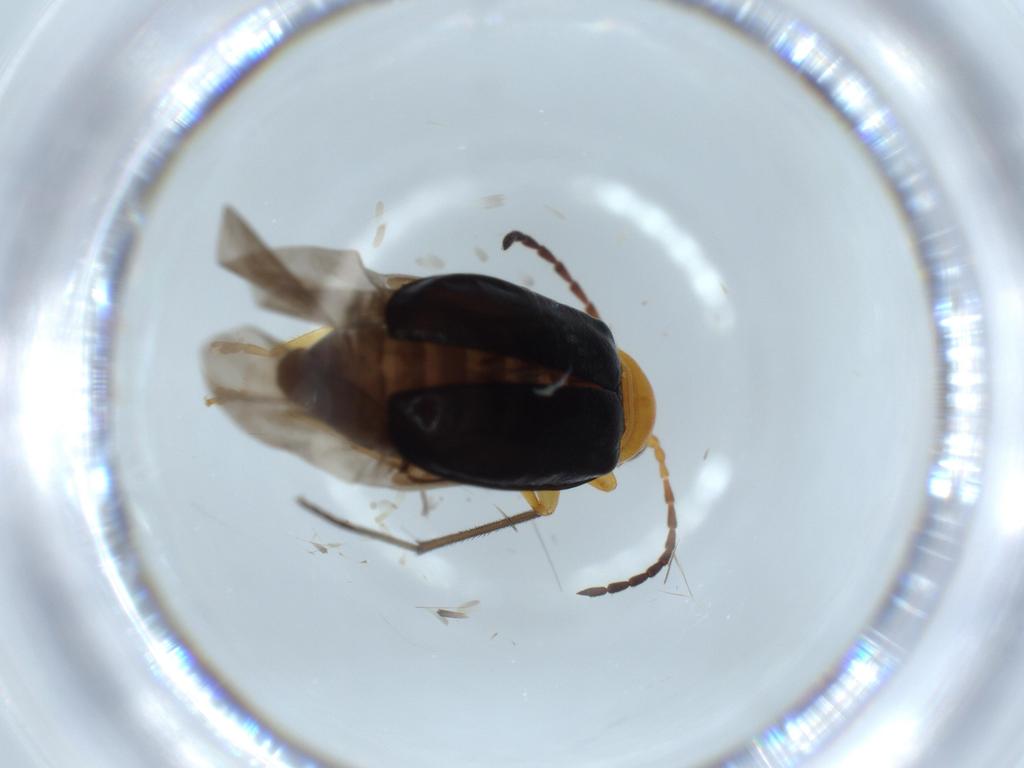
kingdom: Animalia
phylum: Arthropoda
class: Insecta
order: Coleoptera
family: Chrysomelidae
